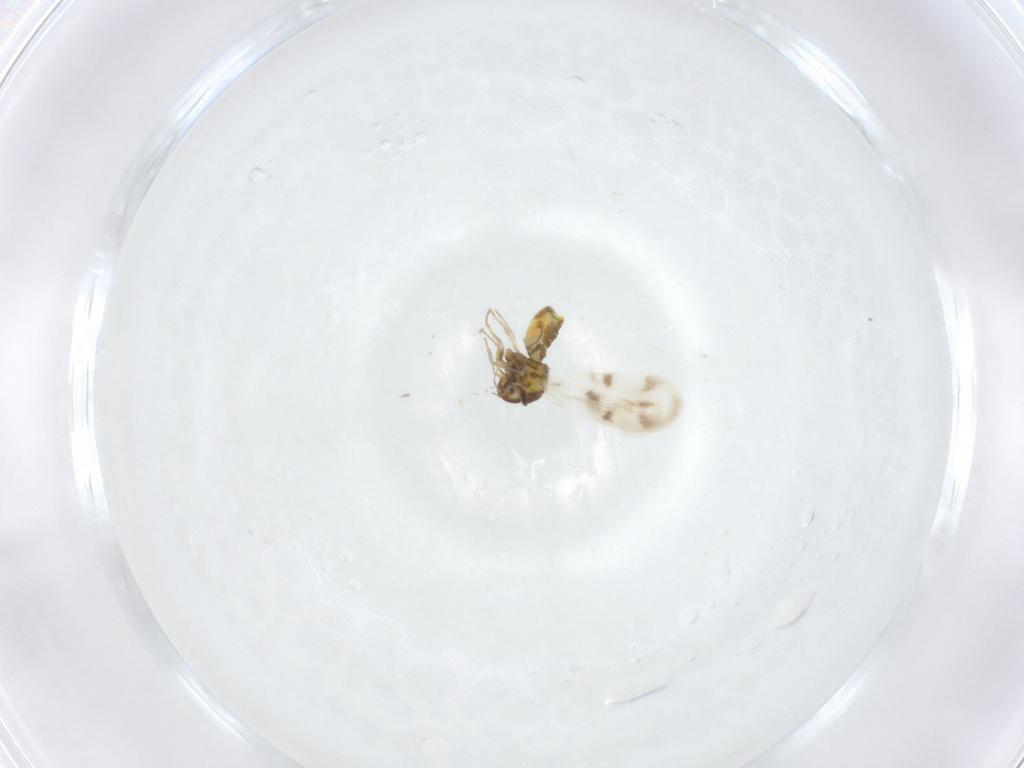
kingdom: Animalia
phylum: Arthropoda
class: Insecta
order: Hemiptera
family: Aleyrodidae
